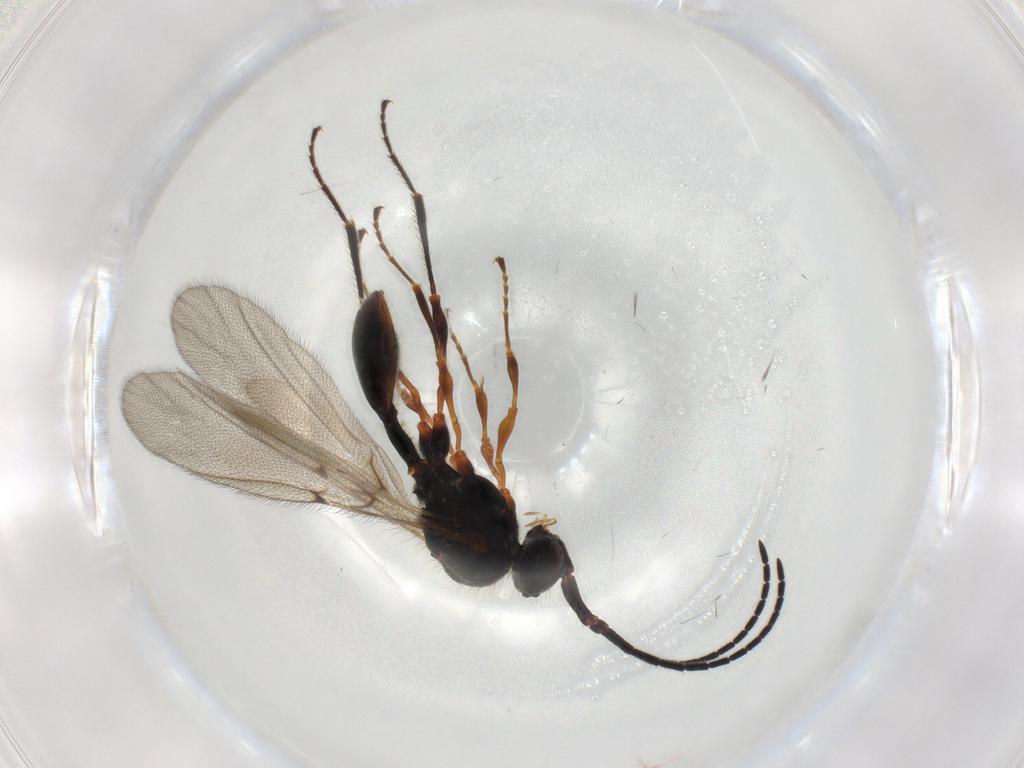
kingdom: Animalia
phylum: Arthropoda
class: Insecta
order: Hymenoptera
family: Diapriidae
